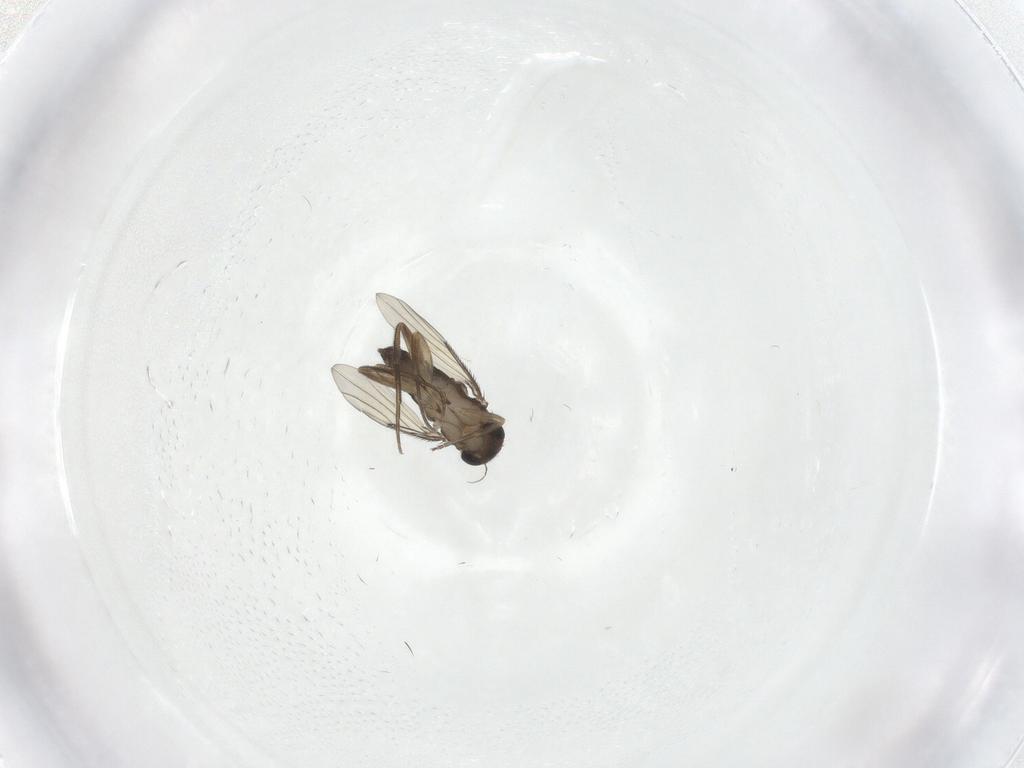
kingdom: Animalia
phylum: Arthropoda
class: Insecta
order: Diptera
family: Phoridae
